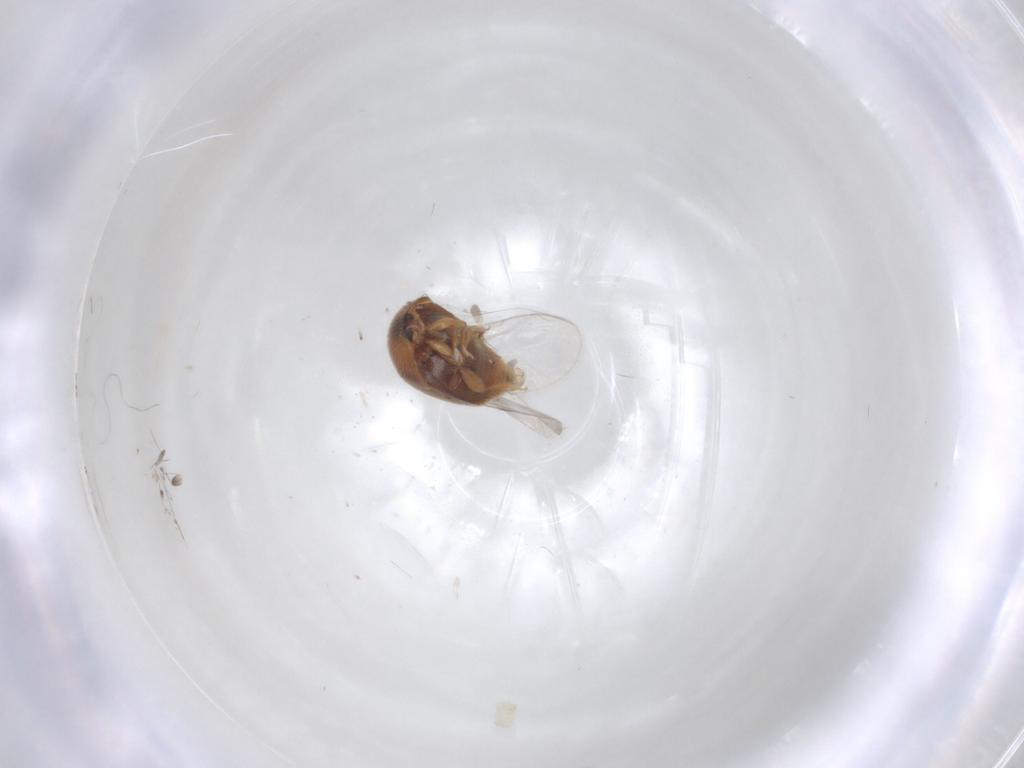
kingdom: Animalia
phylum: Arthropoda
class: Insecta
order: Coleoptera
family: Corylophidae
